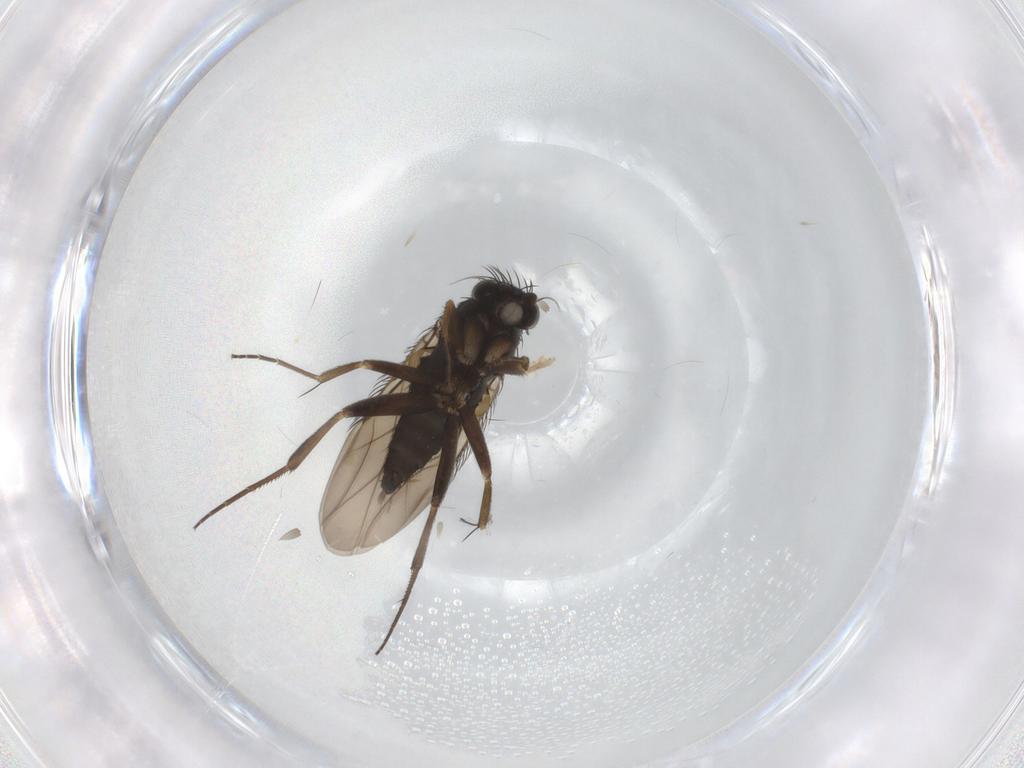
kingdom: Animalia
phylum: Arthropoda
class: Insecta
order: Diptera
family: Phoridae
